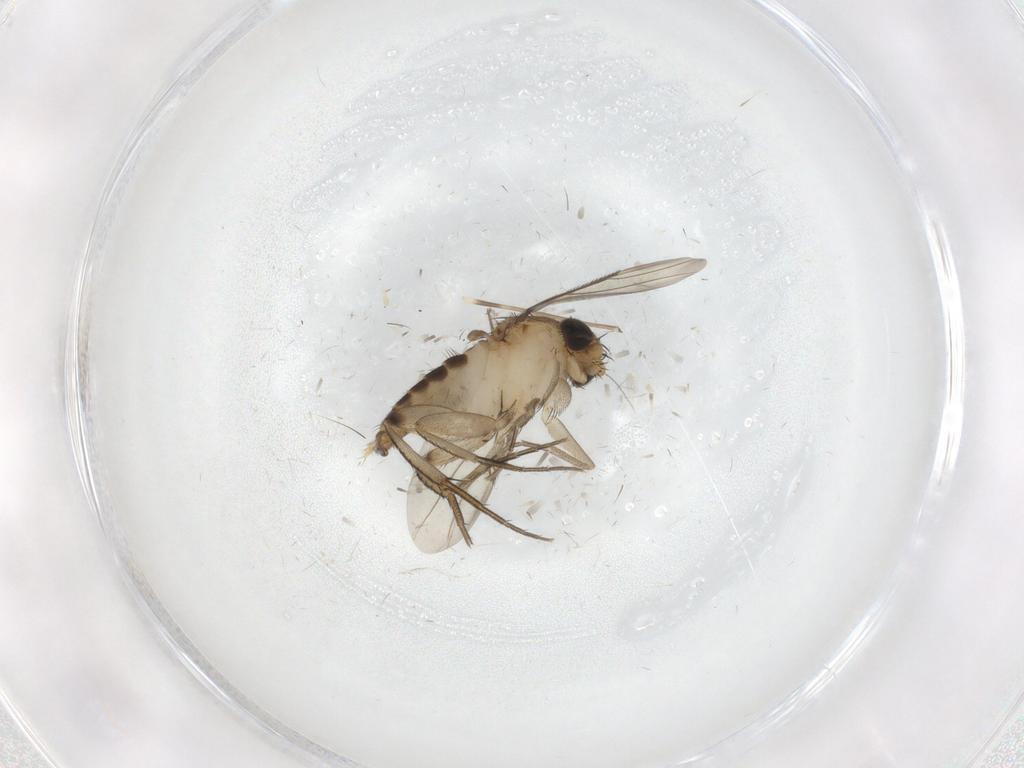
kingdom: Animalia
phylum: Arthropoda
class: Insecta
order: Diptera
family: Phoridae
